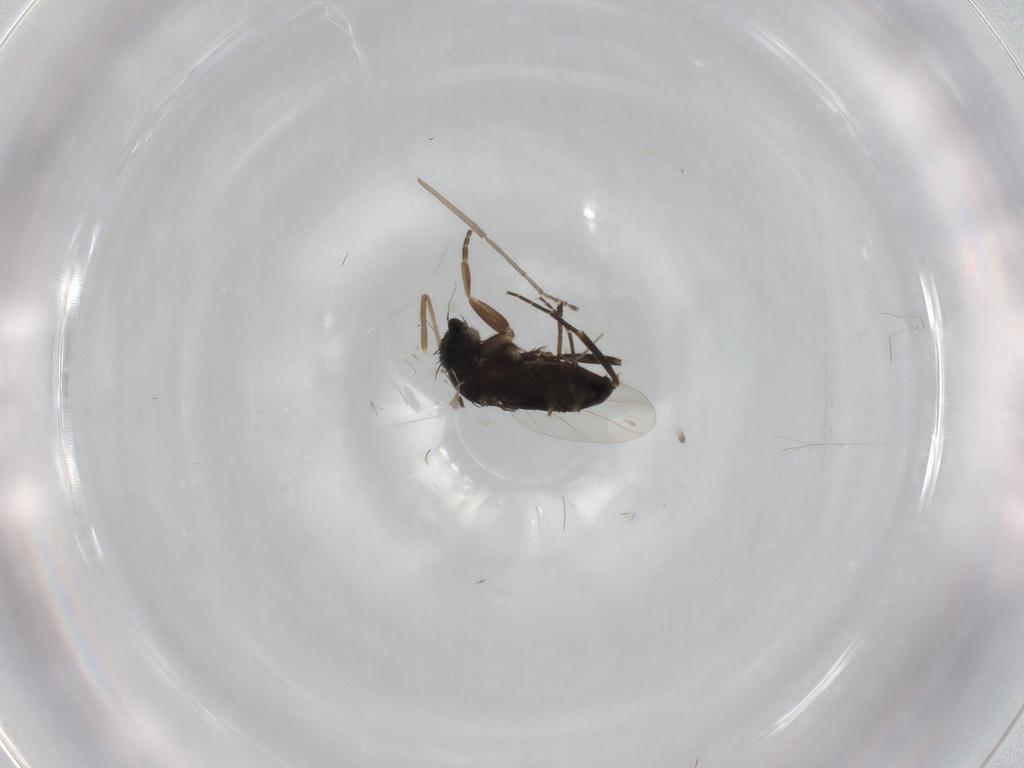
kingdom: Animalia
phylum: Arthropoda
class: Insecta
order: Diptera
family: Phoridae
